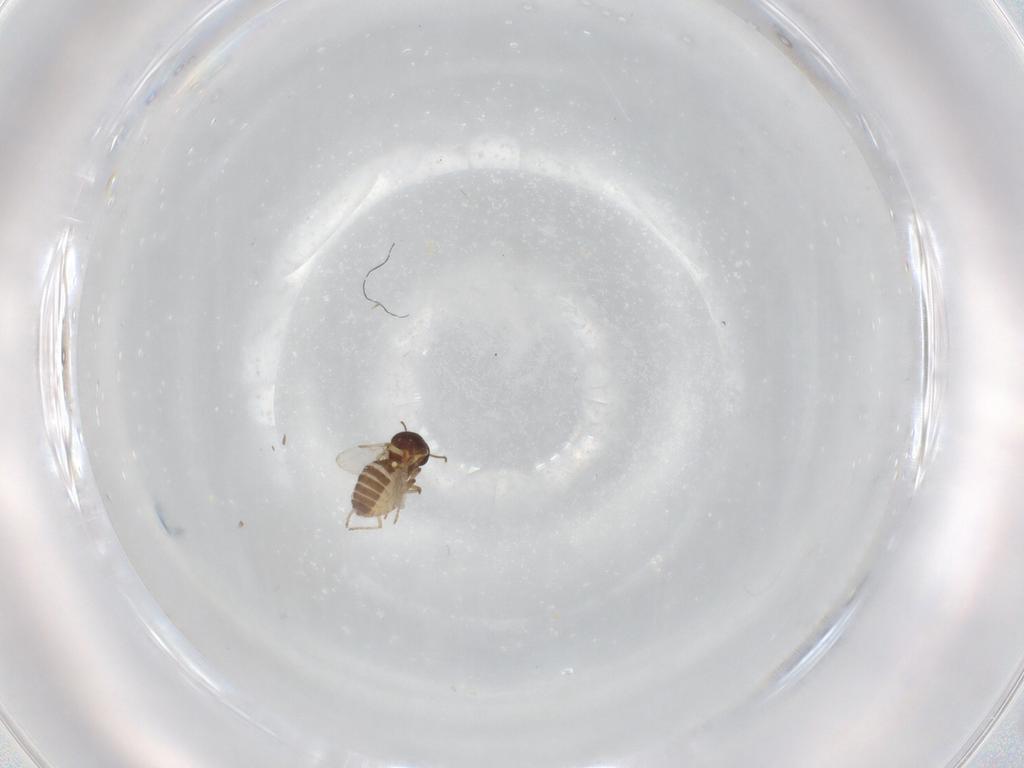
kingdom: Animalia
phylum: Arthropoda
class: Insecta
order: Diptera
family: Ceratopogonidae
